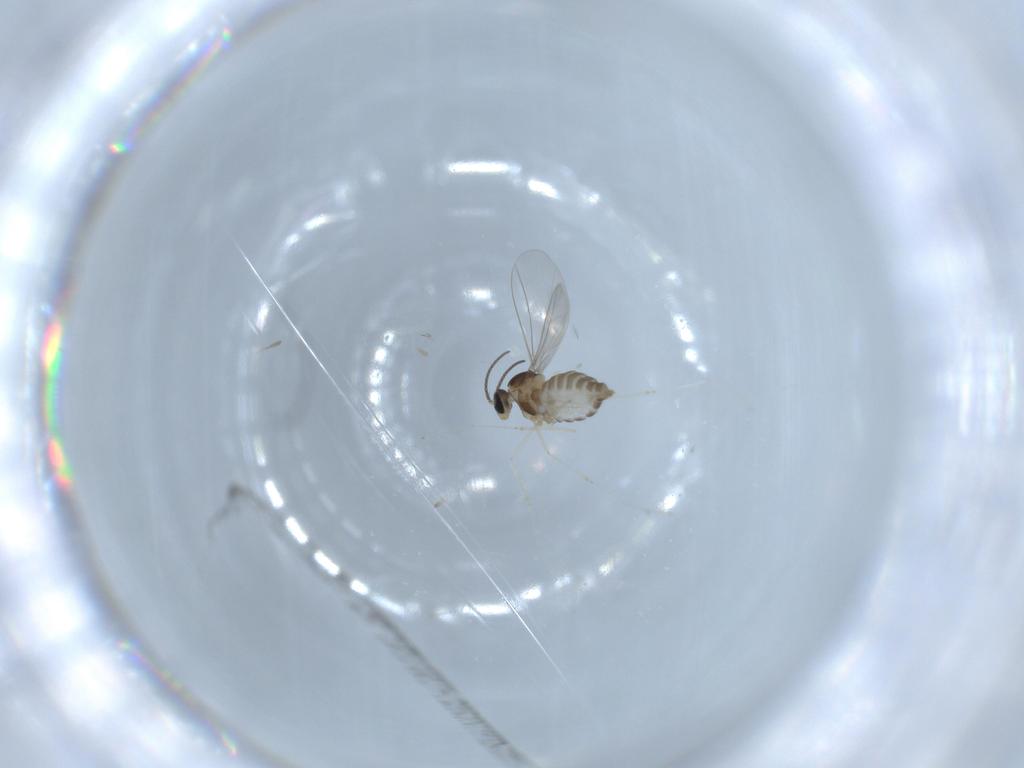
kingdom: Animalia
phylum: Arthropoda
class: Insecta
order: Diptera
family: Cecidomyiidae
